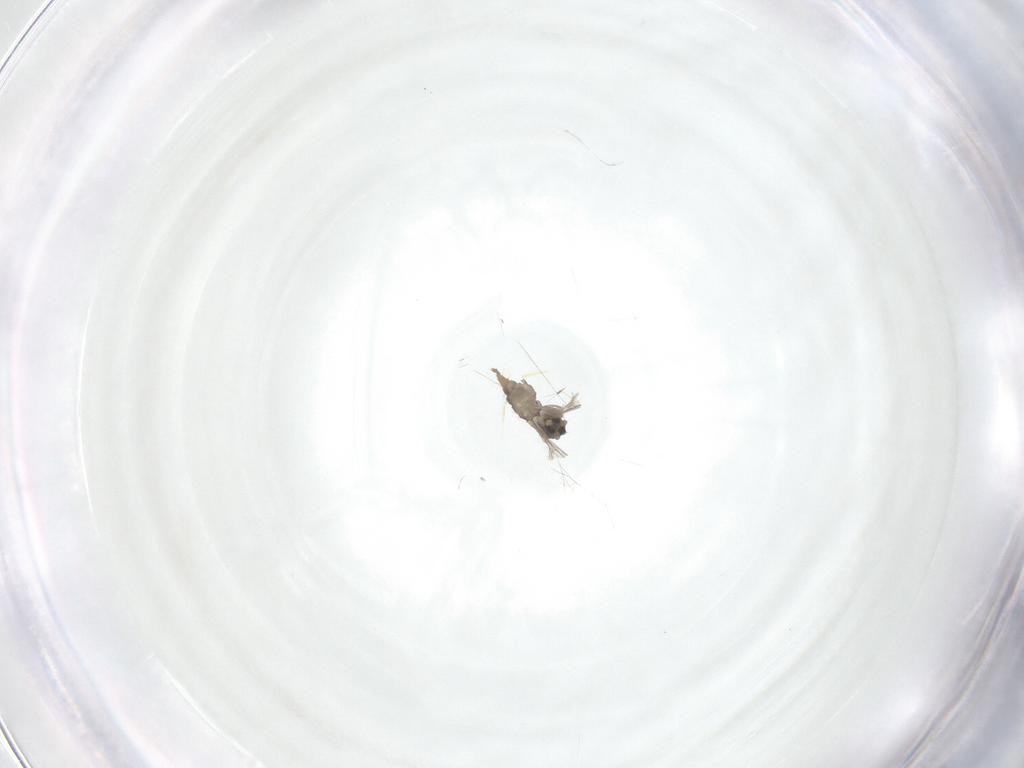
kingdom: Animalia
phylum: Arthropoda
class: Insecta
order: Diptera
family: Cecidomyiidae
